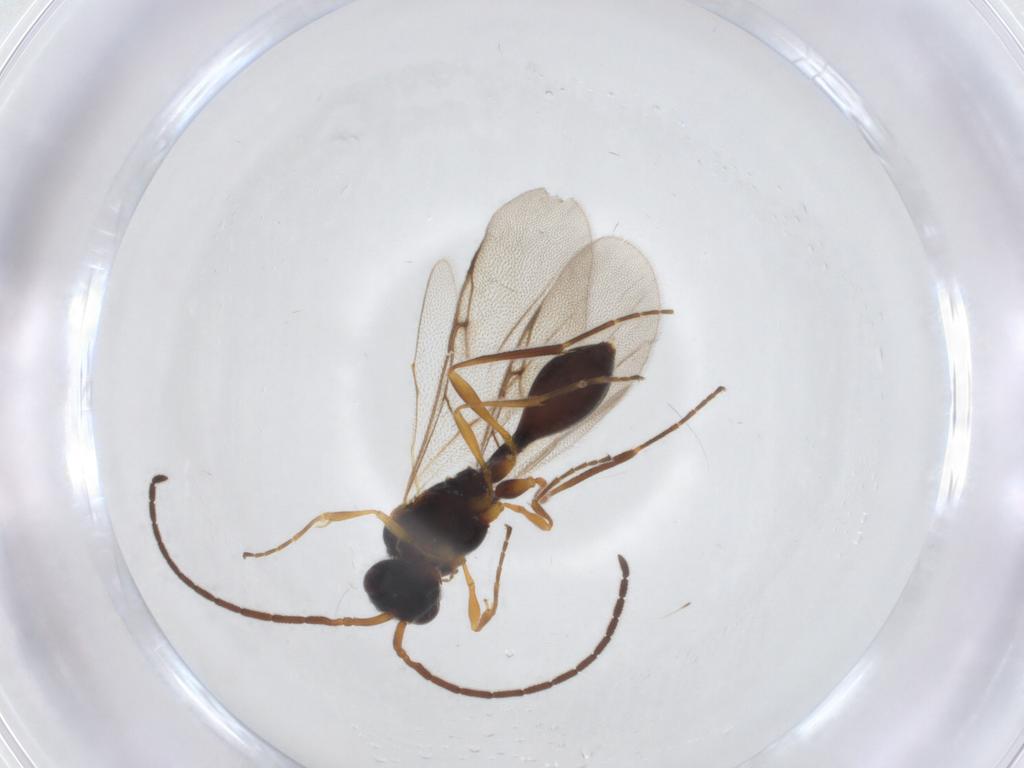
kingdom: Animalia
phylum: Arthropoda
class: Insecta
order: Hymenoptera
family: Diapriidae
